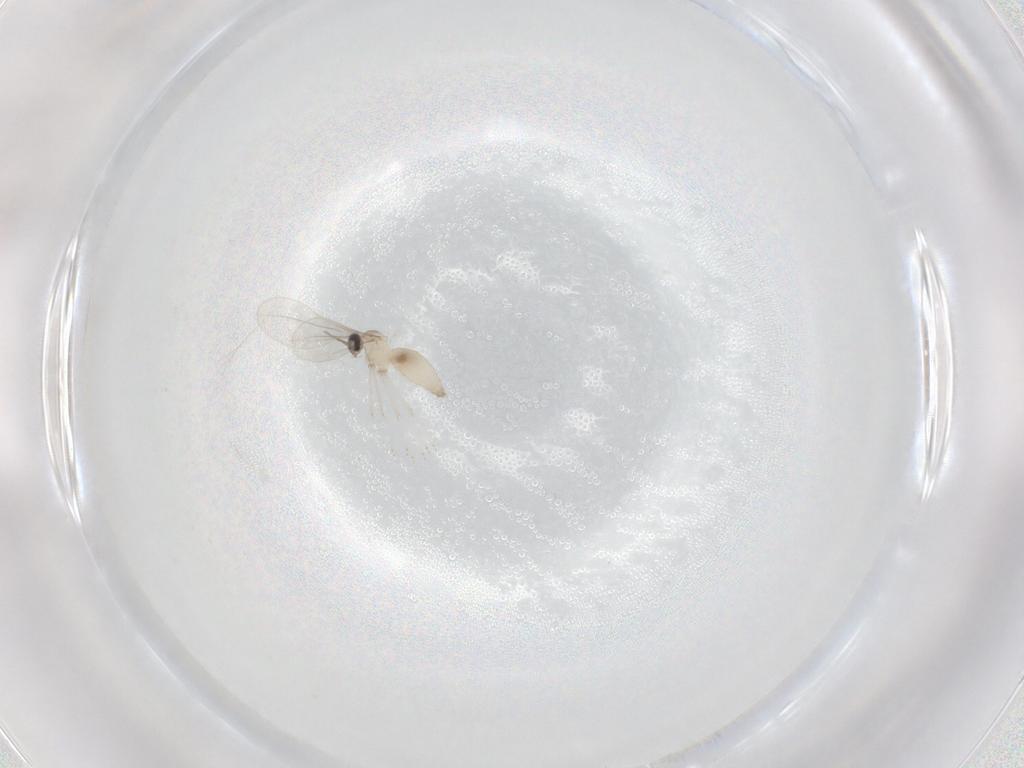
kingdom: Animalia
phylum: Arthropoda
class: Insecta
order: Diptera
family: Cecidomyiidae
